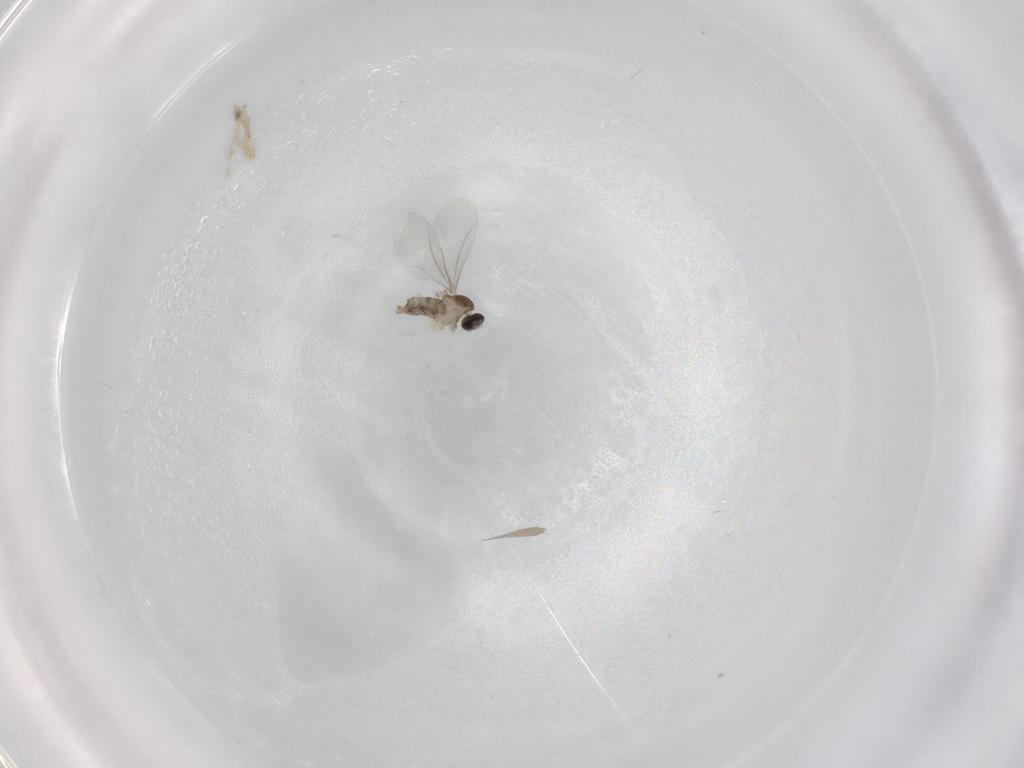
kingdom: Animalia
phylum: Arthropoda
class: Insecta
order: Diptera
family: Cecidomyiidae
